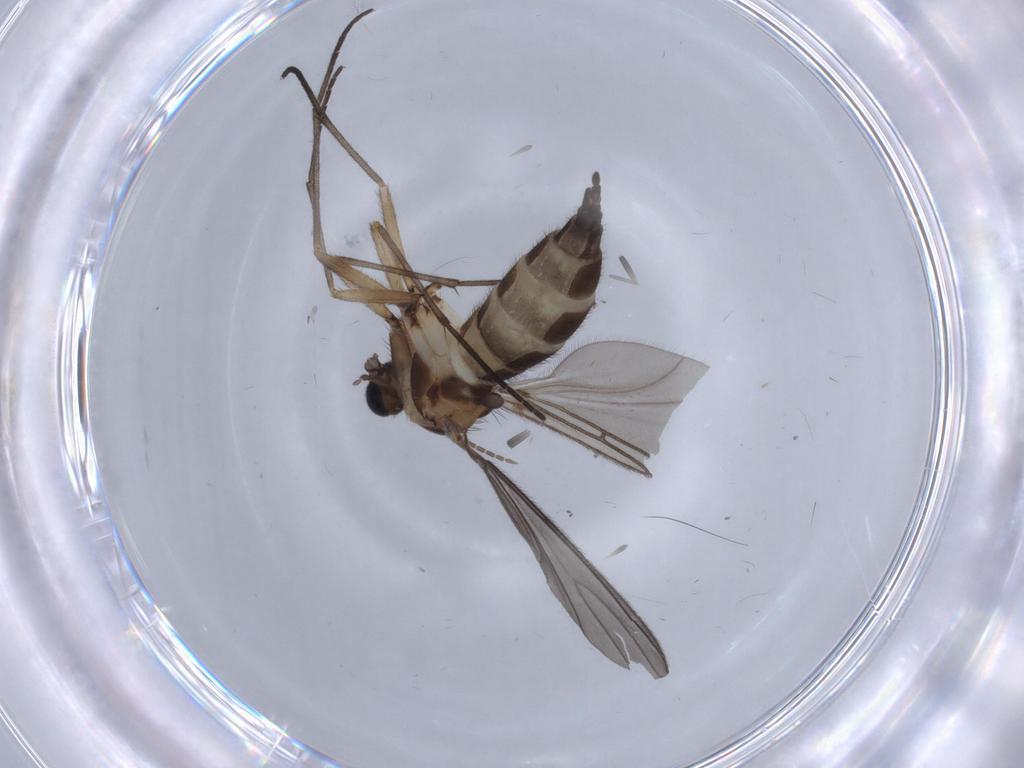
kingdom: Animalia
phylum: Arthropoda
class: Insecta
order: Diptera
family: Sciaridae
